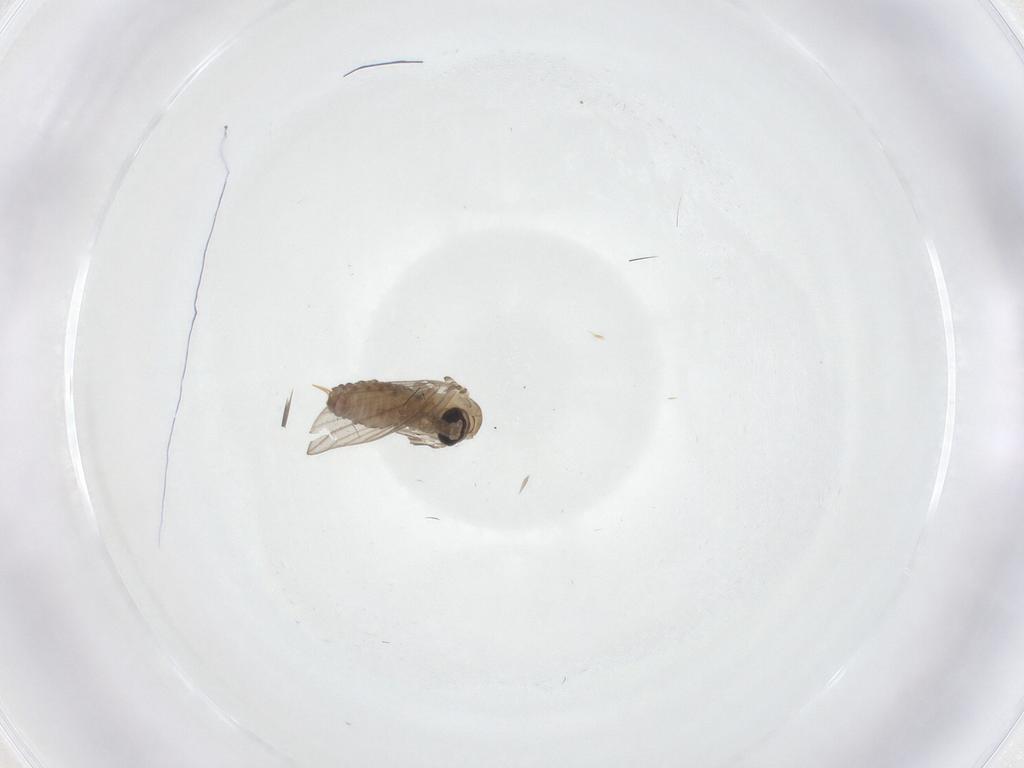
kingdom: Animalia
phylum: Arthropoda
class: Insecta
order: Diptera
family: Psychodidae
